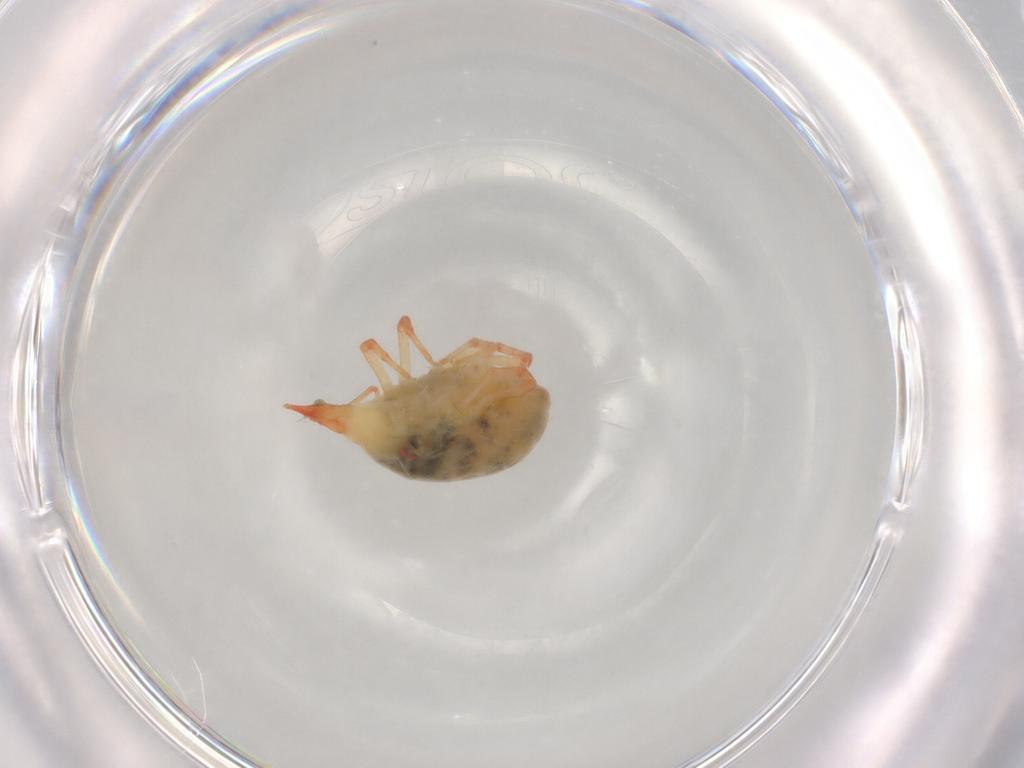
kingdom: Animalia
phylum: Arthropoda
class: Arachnida
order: Trombidiformes
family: Bdellidae
